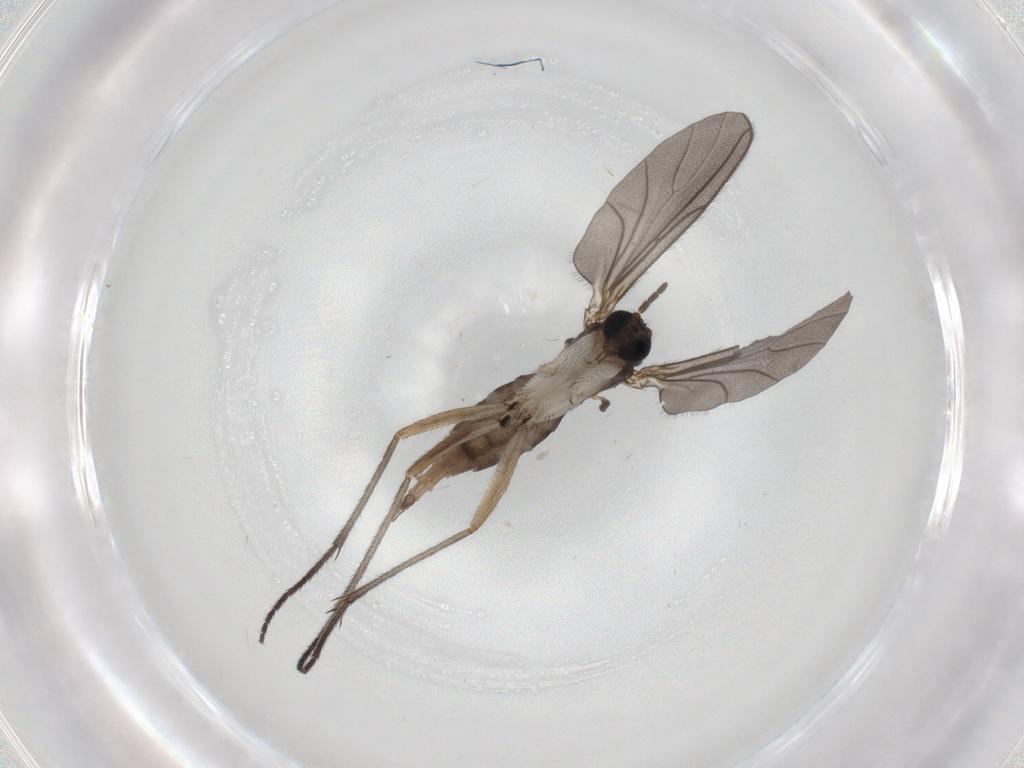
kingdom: Animalia
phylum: Arthropoda
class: Insecta
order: Diptera
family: Sciaridae
